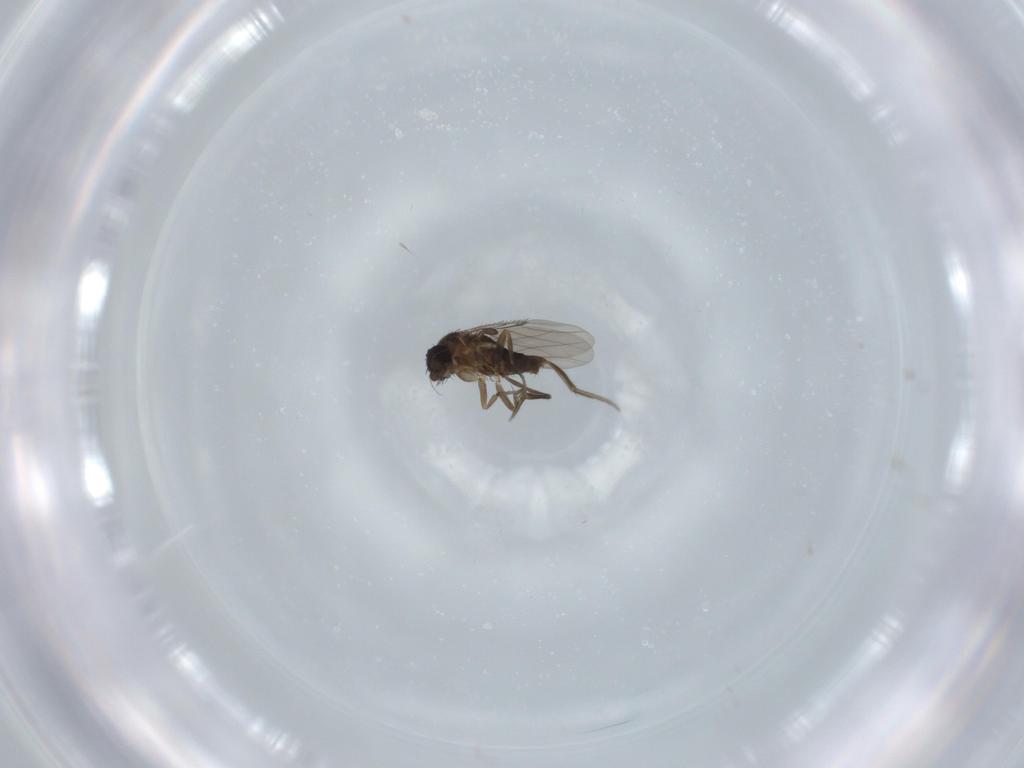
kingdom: Animalia
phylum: Arthropoda
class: Insecta
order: Diptera
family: Phoridae
